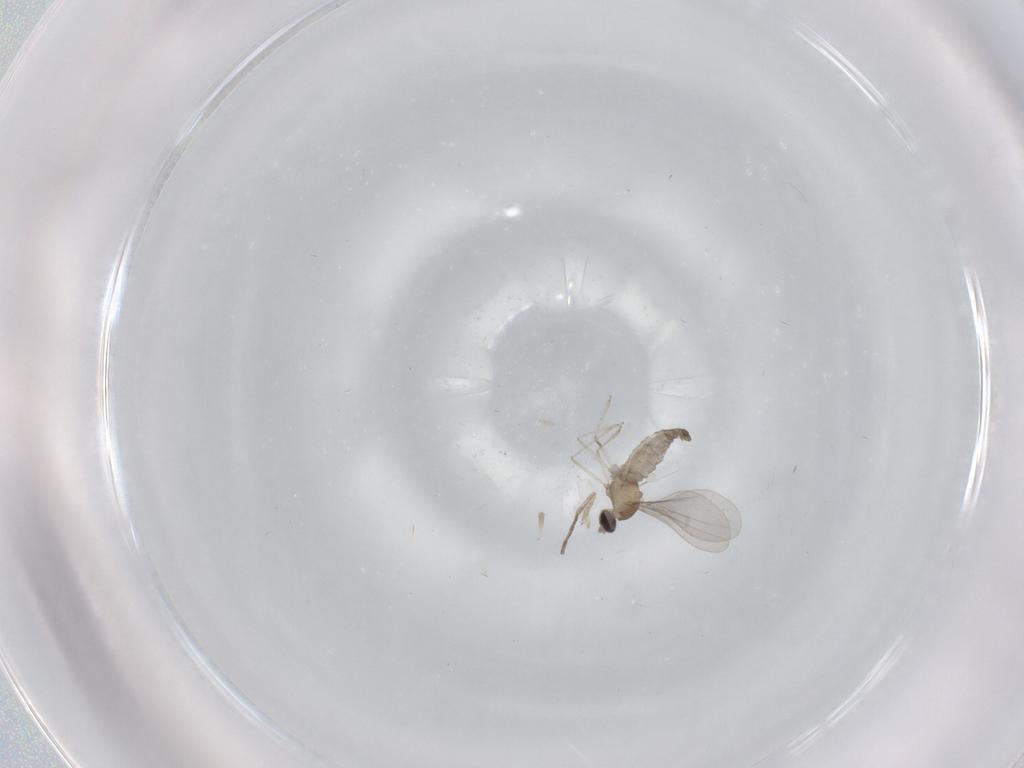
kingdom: Animalia
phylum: Arthropoda
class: Insecta
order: Diptera
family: Cecidomyiidae
